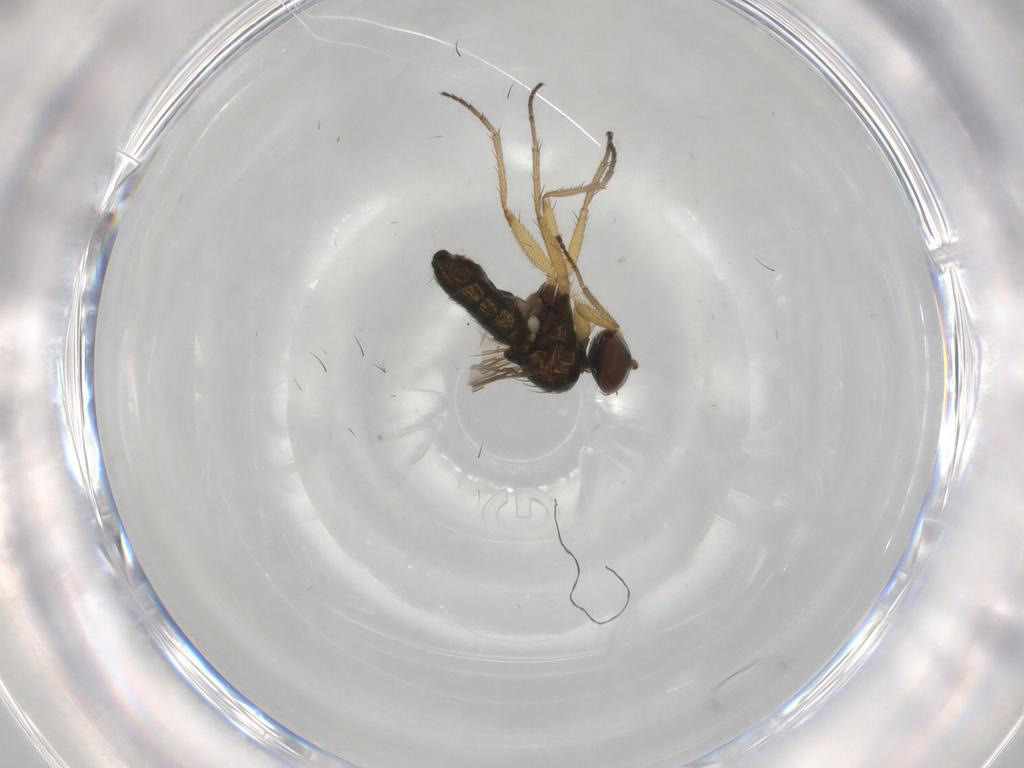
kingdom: Animalia
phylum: Arthropoda
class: Insecta
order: Diptera
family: Dolichopodidae
